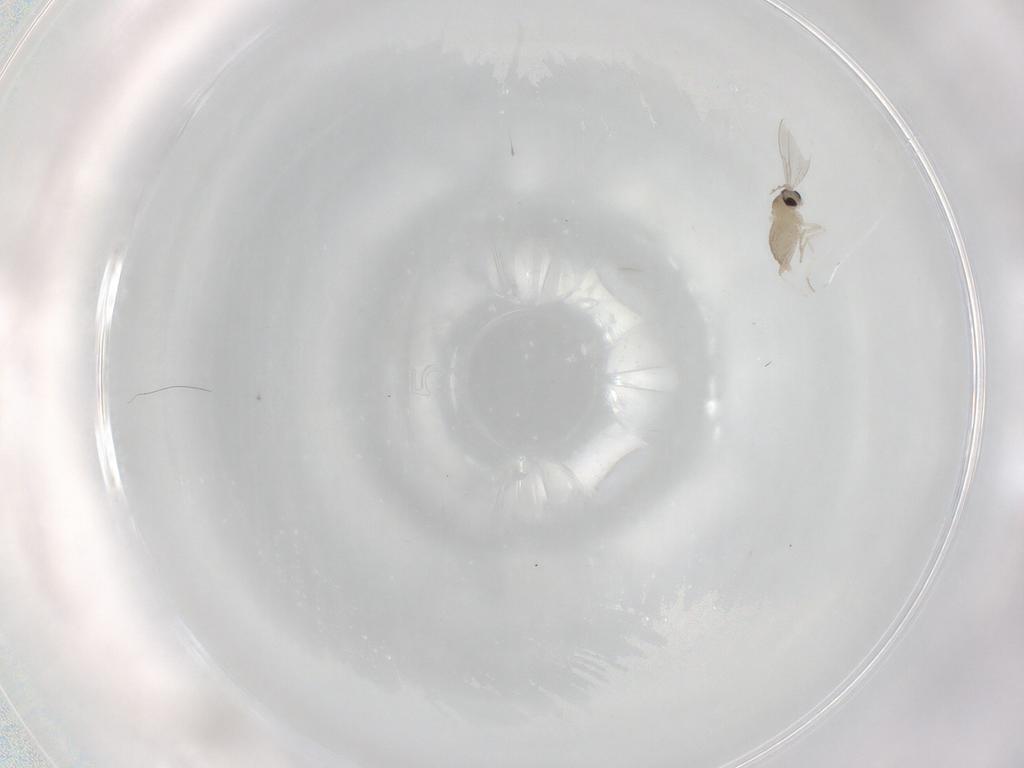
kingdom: Animalia
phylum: Arthropoda
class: Insecta
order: Diptera
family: Cecidomyiidae
